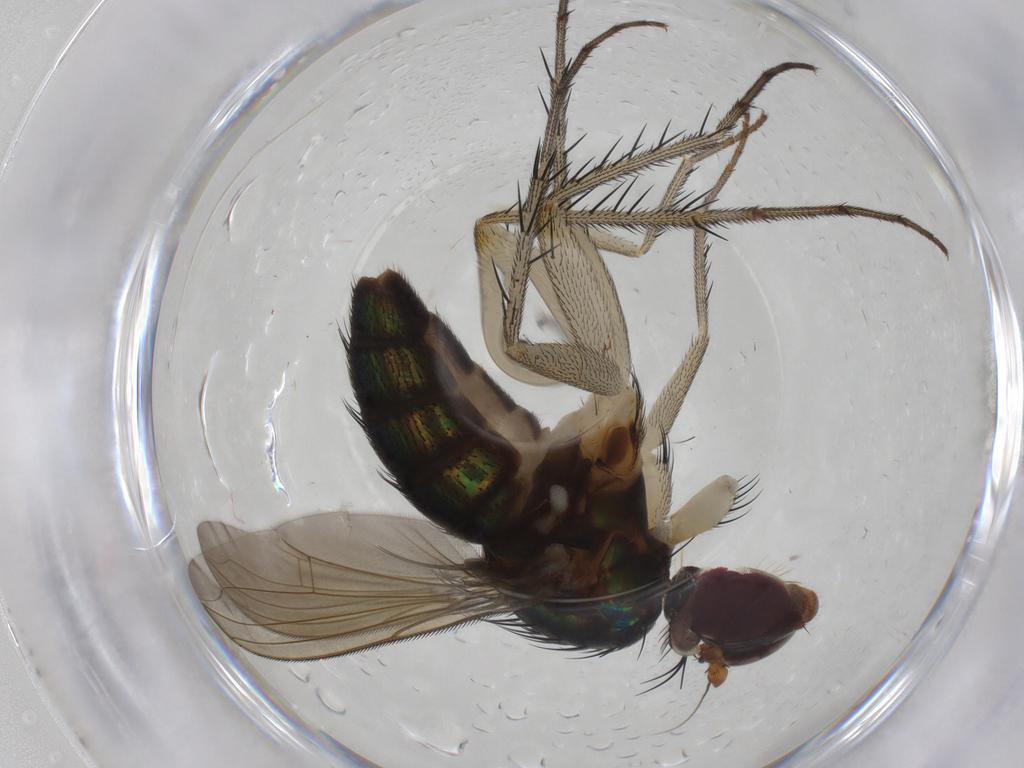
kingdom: Animalia
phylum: Arthropoda
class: Insecta
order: Diptera
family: Dolichopodidae
